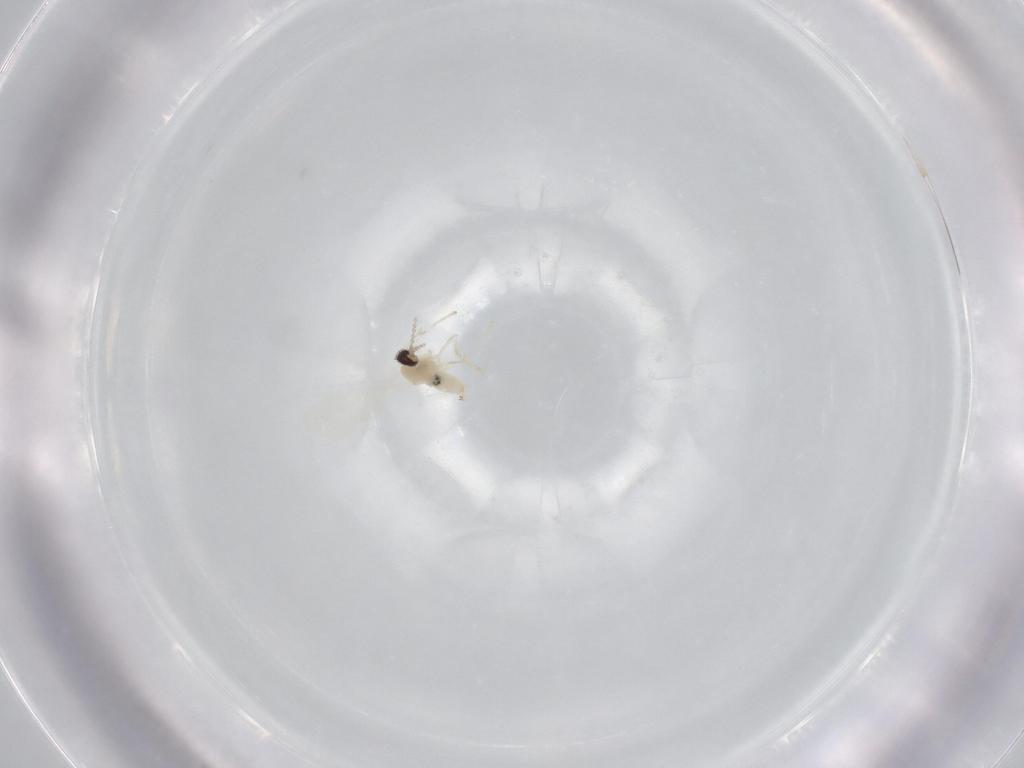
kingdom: Animalia
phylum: Arthropoda
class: Insecta
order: Diptera
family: Cecidomyiidae
